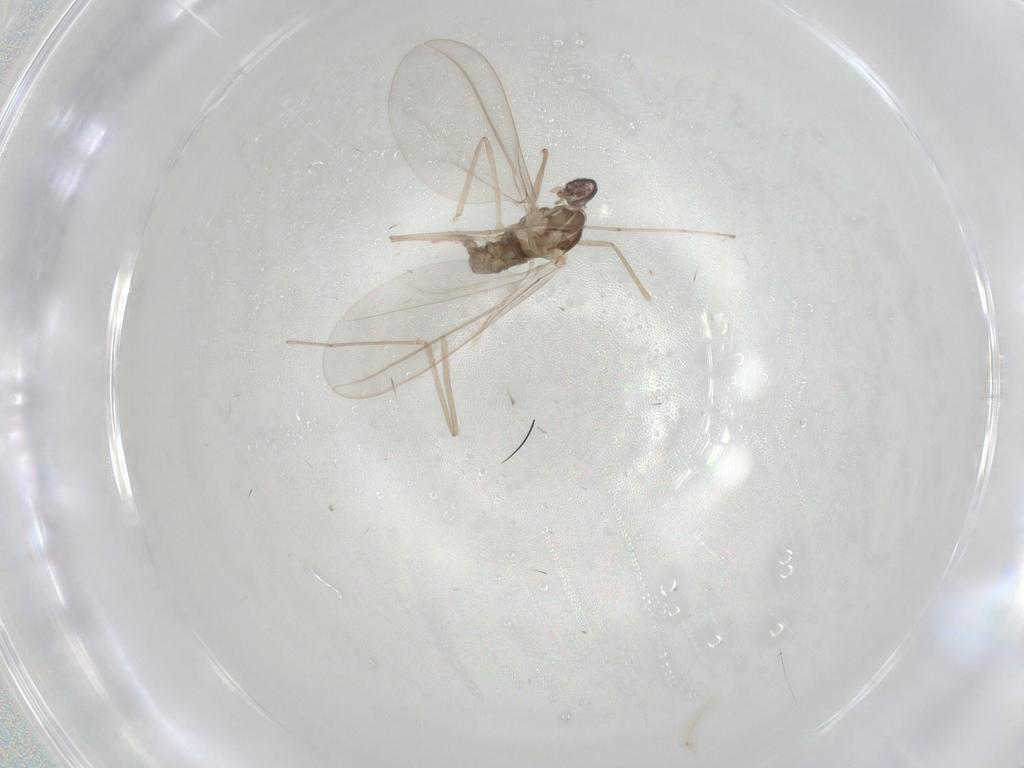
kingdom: Animalia
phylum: Arthropoda
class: Insecta
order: Diptera
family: Cecidomyiidae
